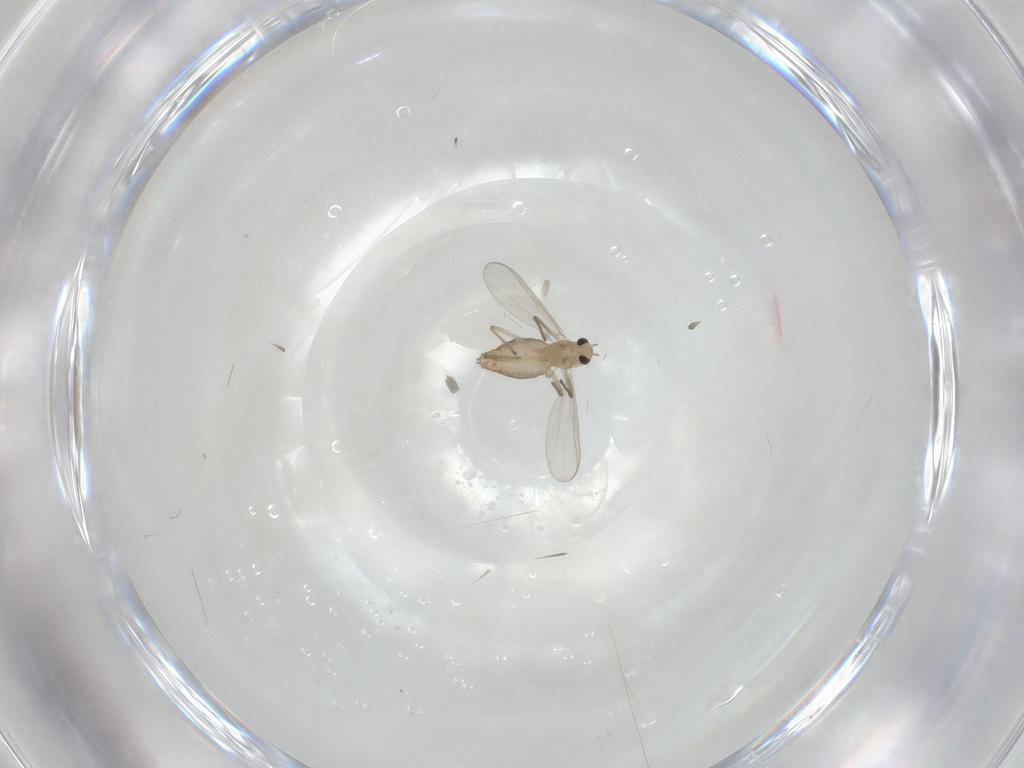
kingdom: Animalia
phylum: Arthropoda
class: Insecta
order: Diptera
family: Chironomidae
